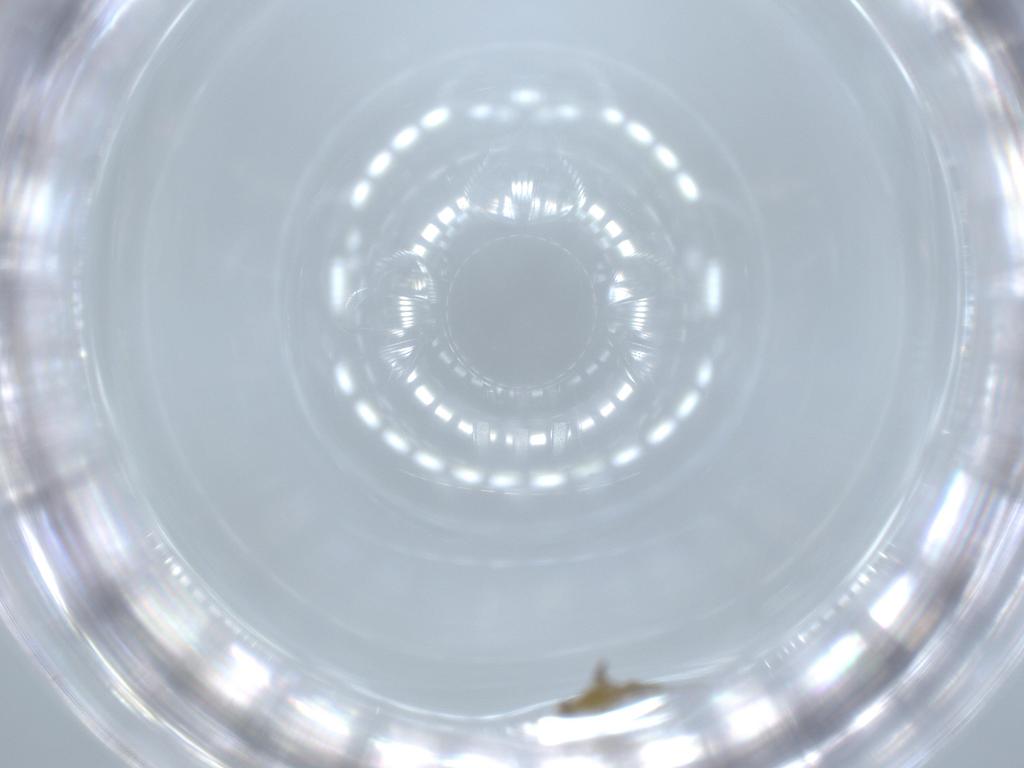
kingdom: Animalia
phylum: Arthropoda
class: Insecta
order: Diptera
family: Chironomidae
